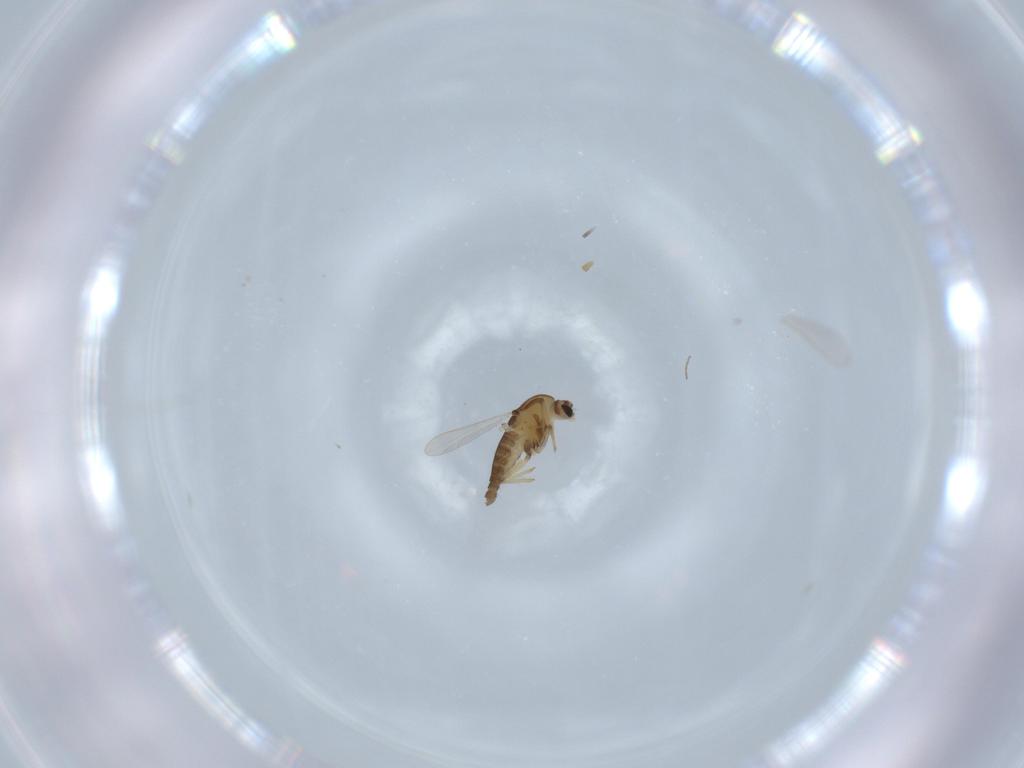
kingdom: Animalia
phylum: Arthropoda
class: Insecta
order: Diptera
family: Chironomidae
